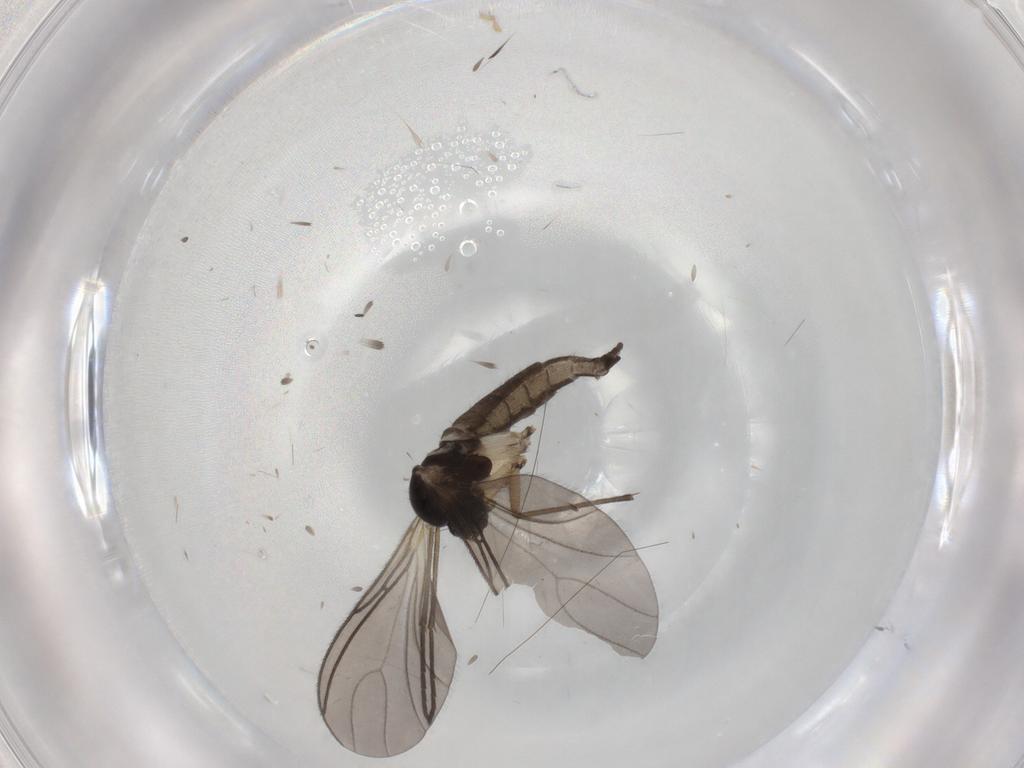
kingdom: Animalia
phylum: Arthropoda
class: Insecta
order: Diptera
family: Sciaridae
